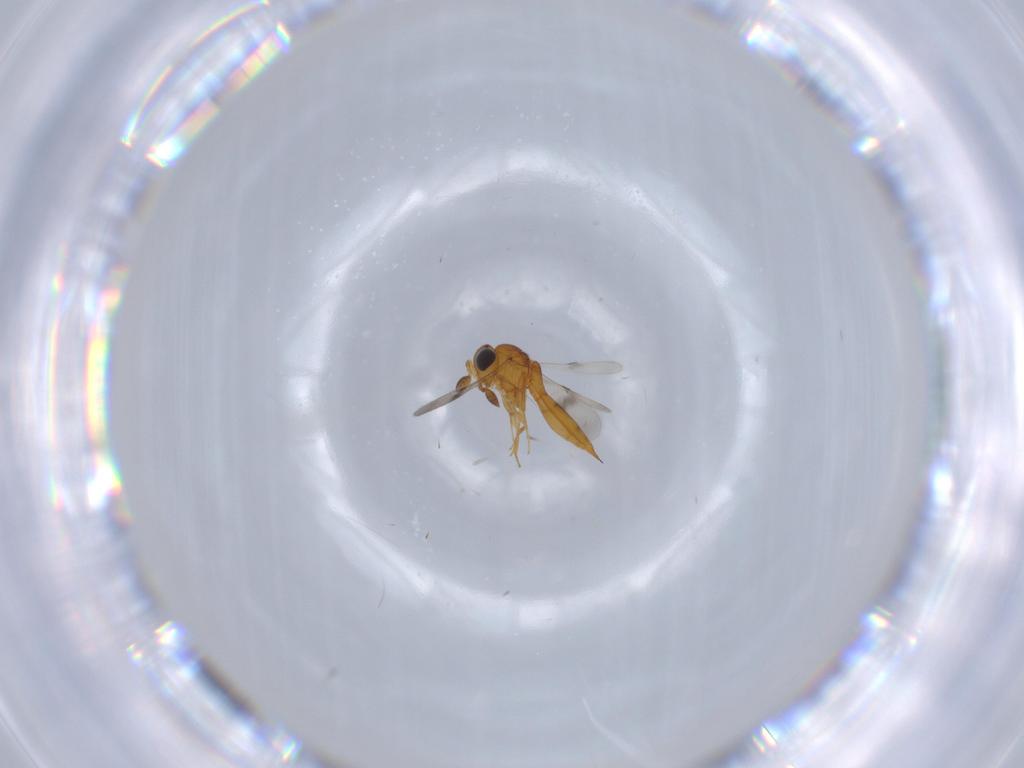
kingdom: Animalia
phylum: Arthropoda
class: Insecta
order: Hymenoptera
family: Scelionidae
